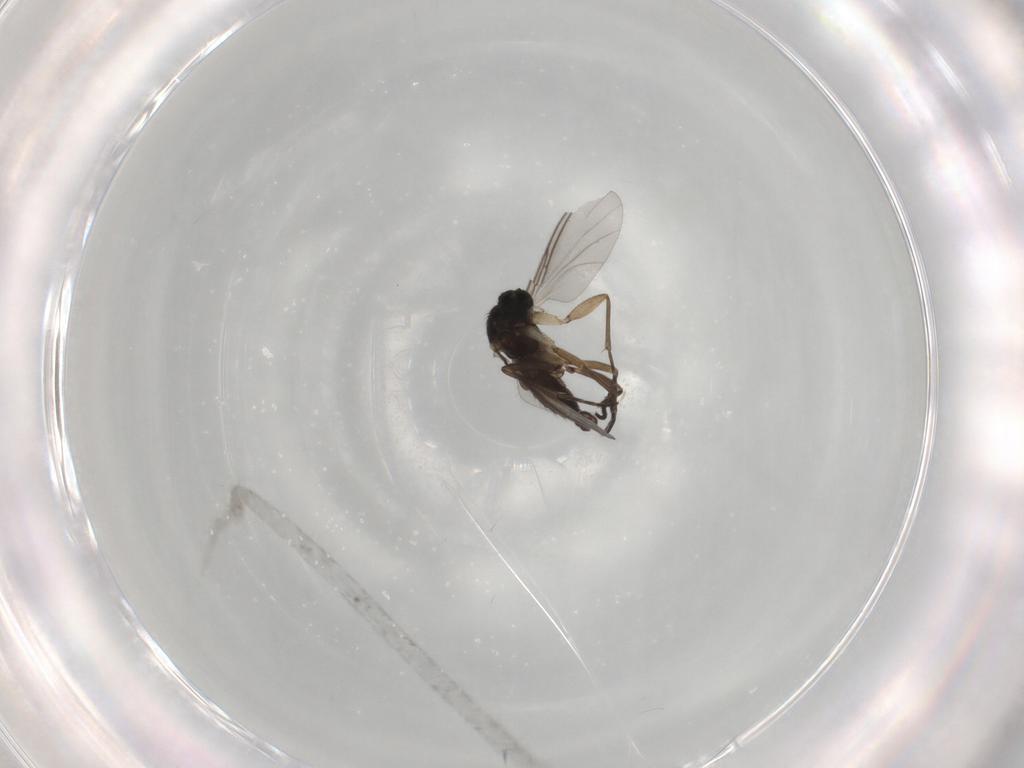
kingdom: Animalia
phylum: Arthropoda
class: Insecta
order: Diptera
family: Sciaridae
